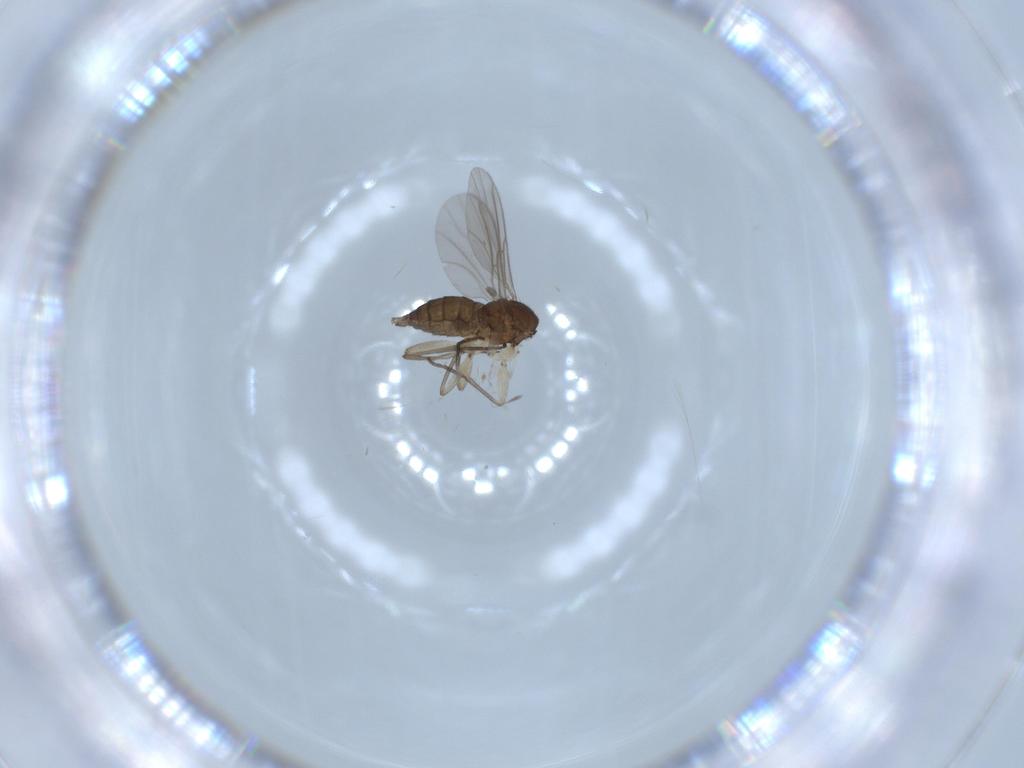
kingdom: Animalia
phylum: Arthropoda
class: Insecta
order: Diptera
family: Sciaridae
